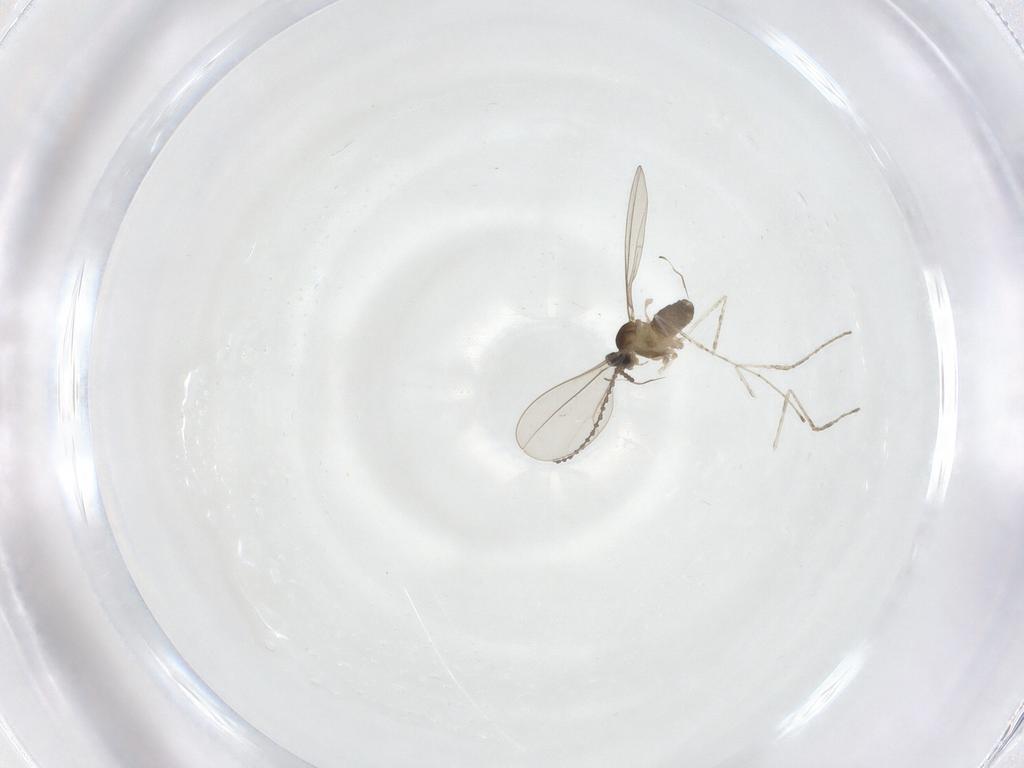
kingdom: Animalia
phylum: Arthropoda
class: Insecta
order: Diptera
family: Cecidomyiidae
